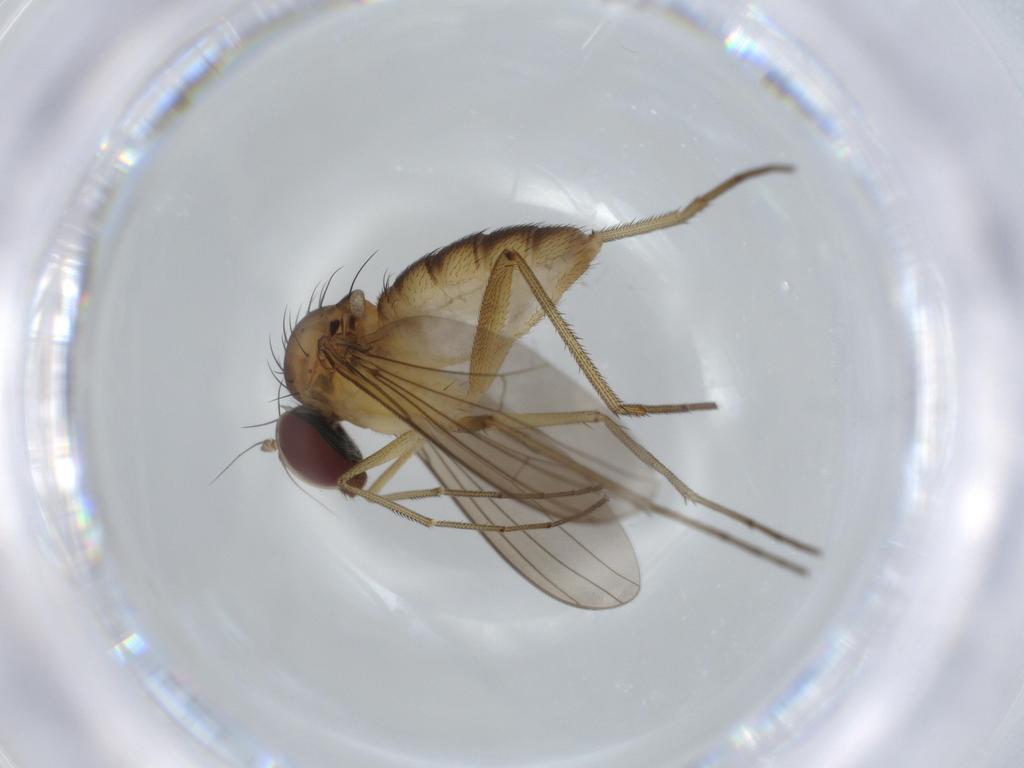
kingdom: Animalia
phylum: Arthropoda
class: Insecta
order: Diptera
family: Dolichopodidae
